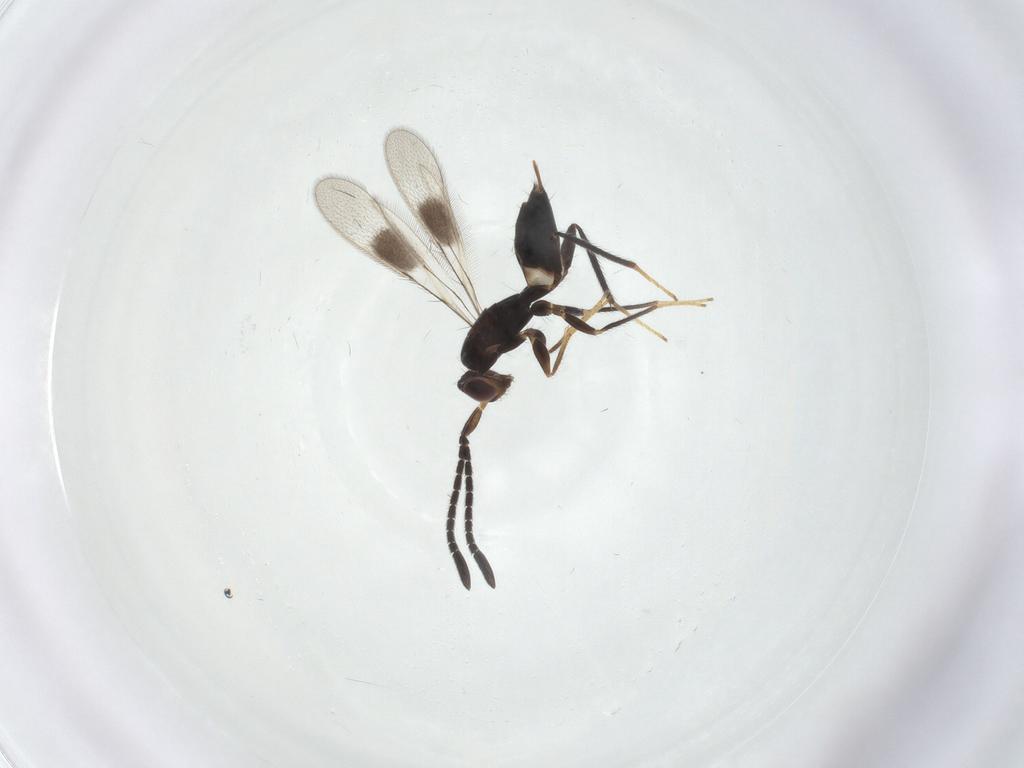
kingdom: Animalia
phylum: Arthropoda
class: Insecta
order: Hymenoptera
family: Mymaridae
